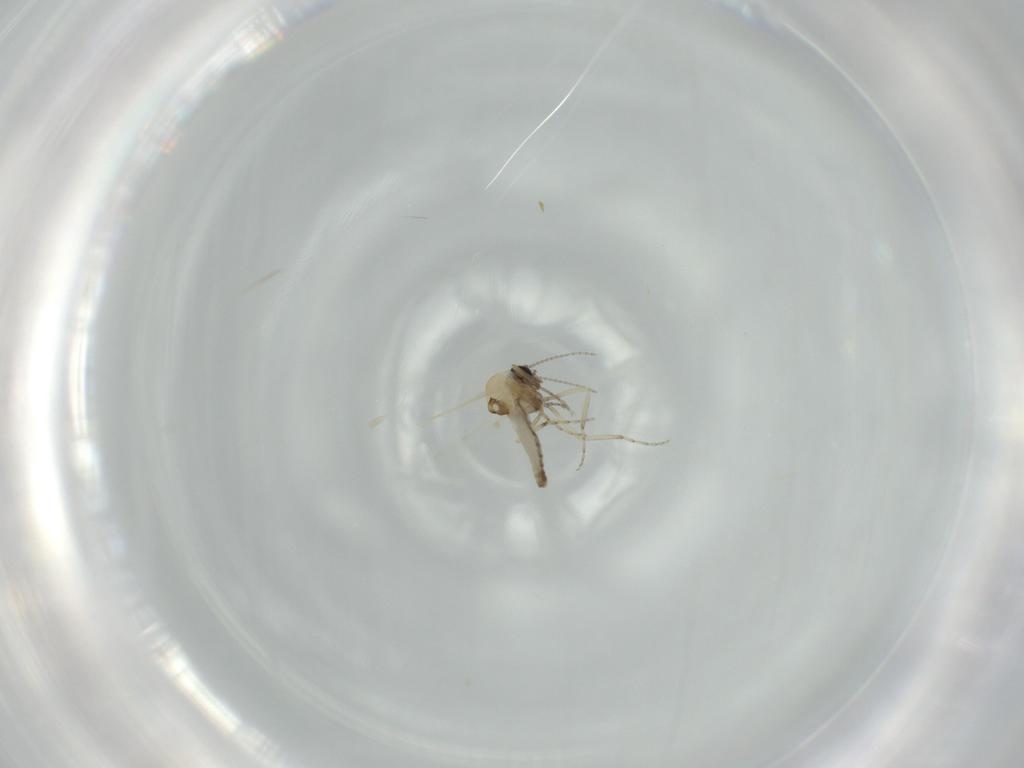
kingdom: Animalia
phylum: Arthropoda
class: Insecta
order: Diptera
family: Ceratopogonidae
